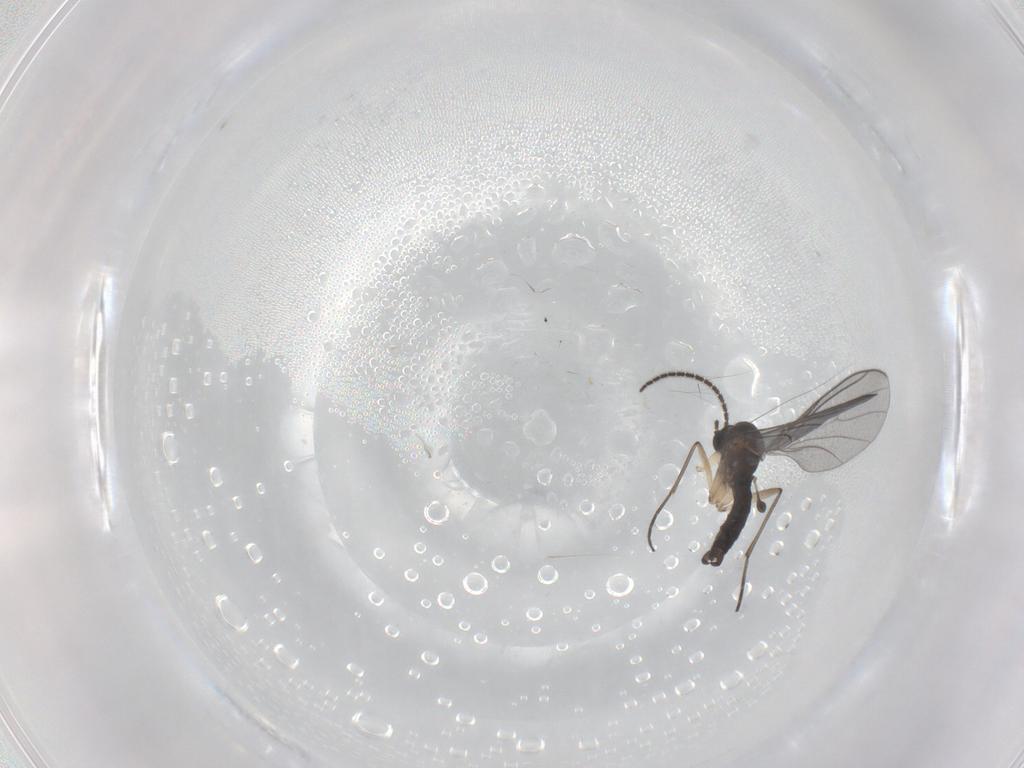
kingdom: Animalia
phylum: Arthropoda
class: Insecta
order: Diptera
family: Sciaridae
